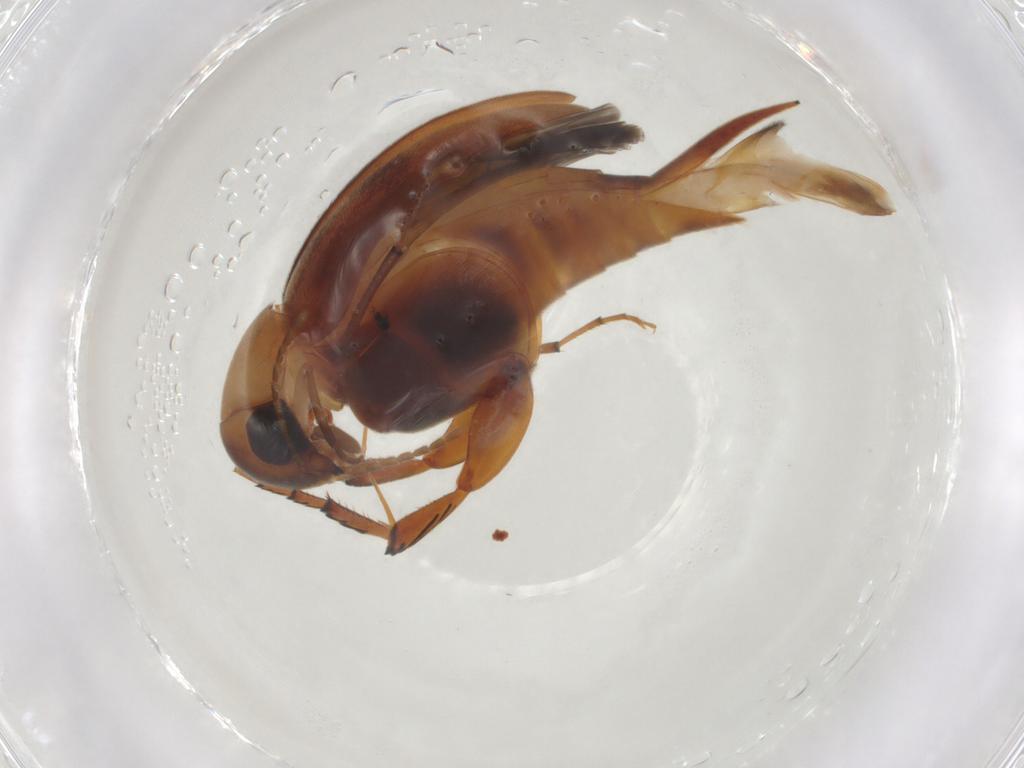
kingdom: Animalia
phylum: Arthropoda
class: Insecta
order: Coleoptera
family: Mordellidae
